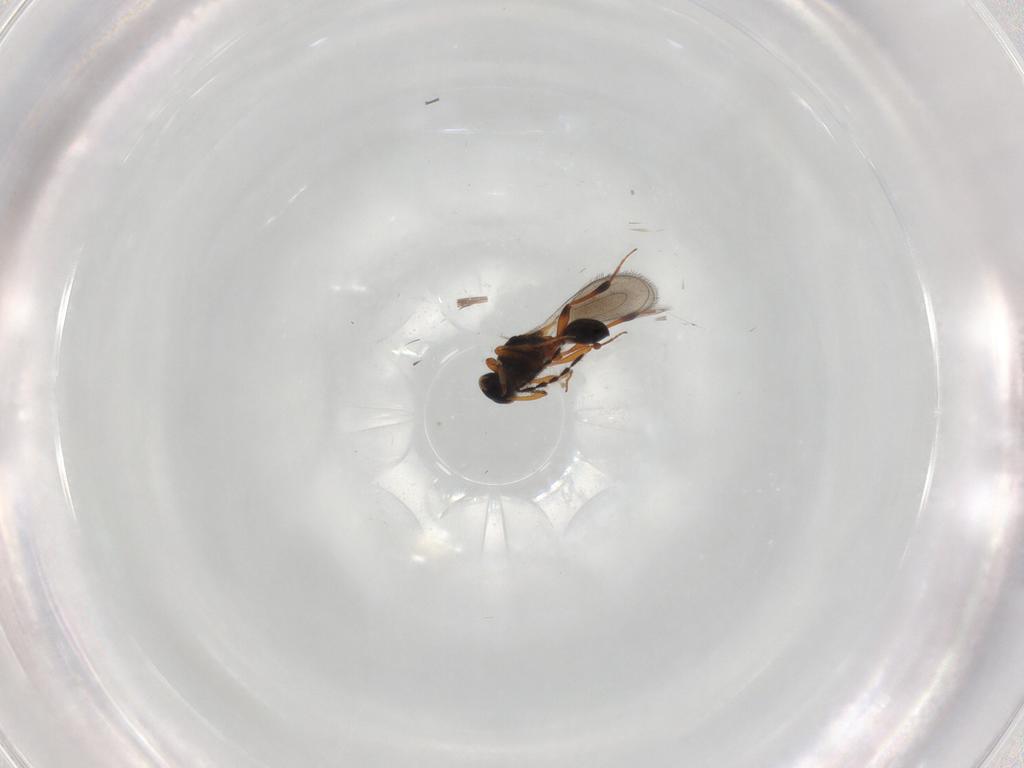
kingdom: Animalia
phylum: Arthropoda
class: Insecta
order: Hymenoptera
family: Platygastridae
